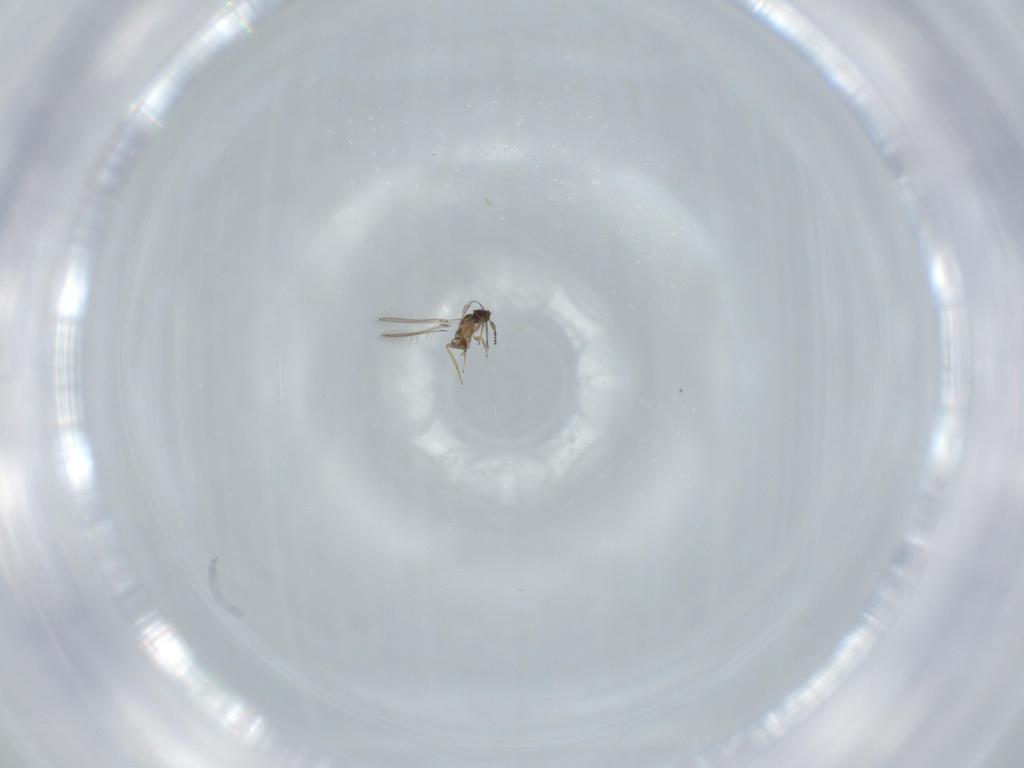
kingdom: Animalia
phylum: Arthropoda
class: Insecta
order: Hymenoptera
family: Mymaridae
